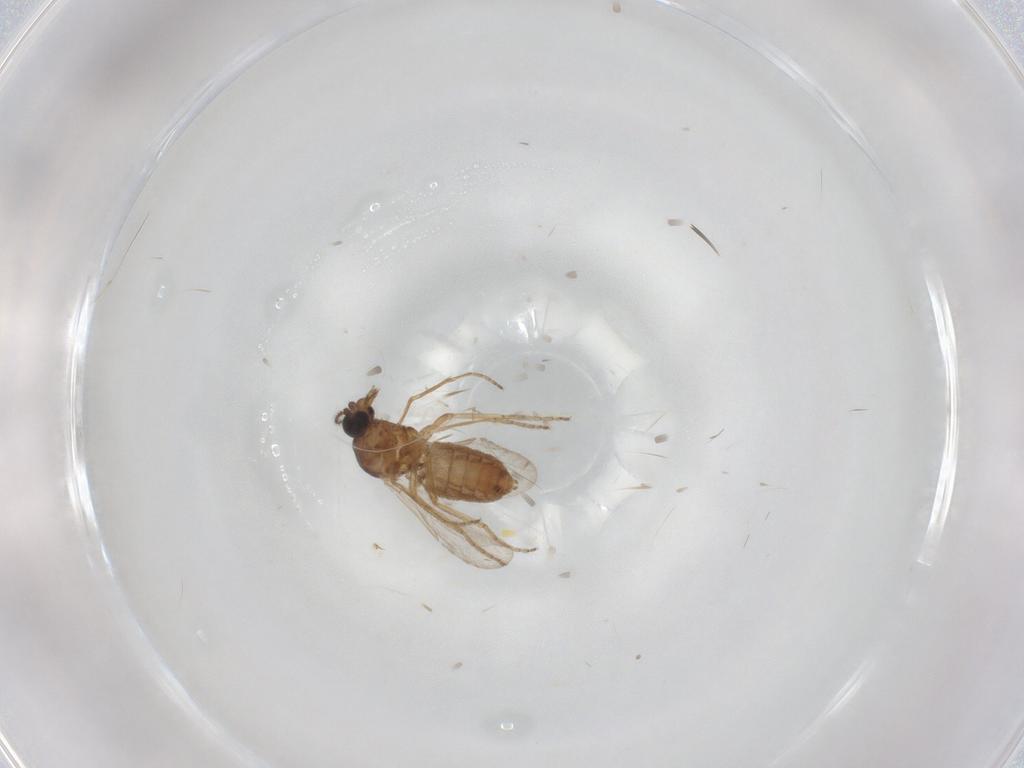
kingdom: Animalia
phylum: Arthropoda
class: Insecta
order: Diptera
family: Ceratopogonidae
